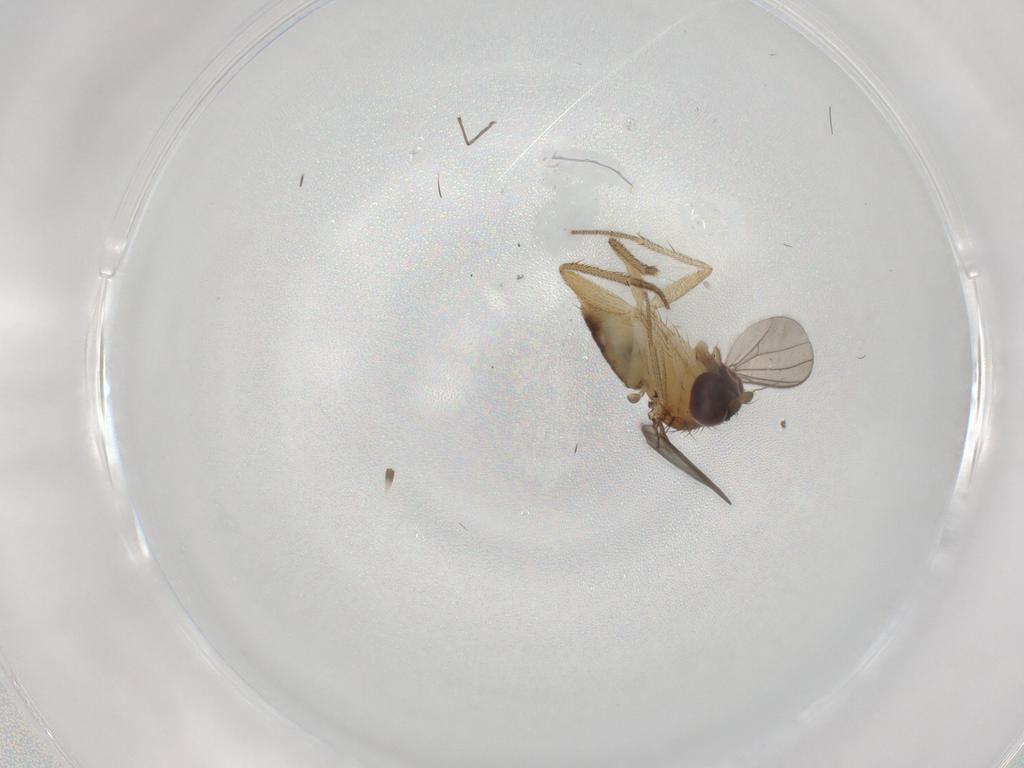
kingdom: Animalia
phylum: Arthropoda
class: Insecta
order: Diptera
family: Dolichopodidae
